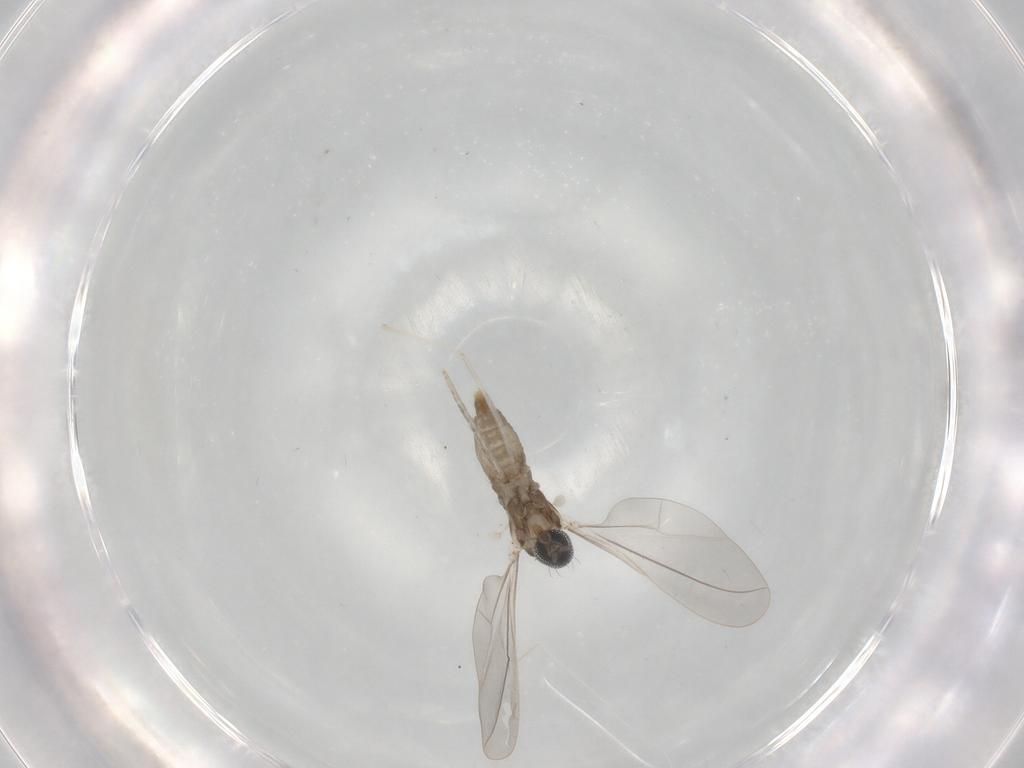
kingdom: Animalia
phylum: Arthropoda
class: Insecta
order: Diptera
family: Cecidomyiidae
